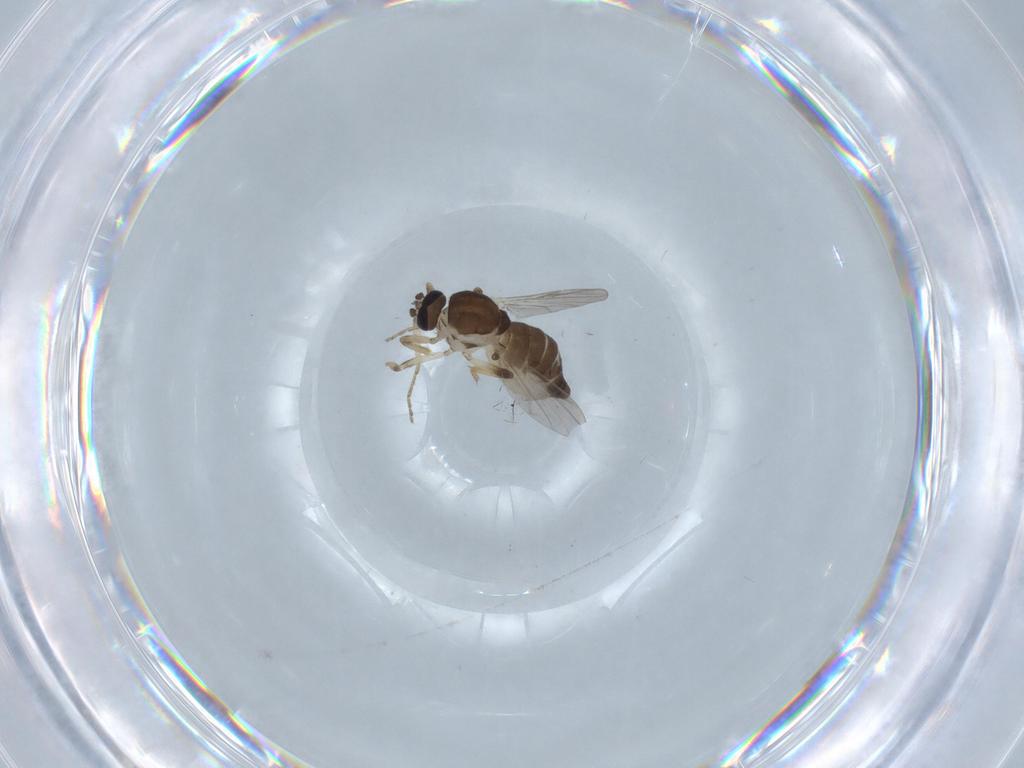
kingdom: Animalia
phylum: Arthropoda
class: Insecta
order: Diptera
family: Ceratopogonidae
